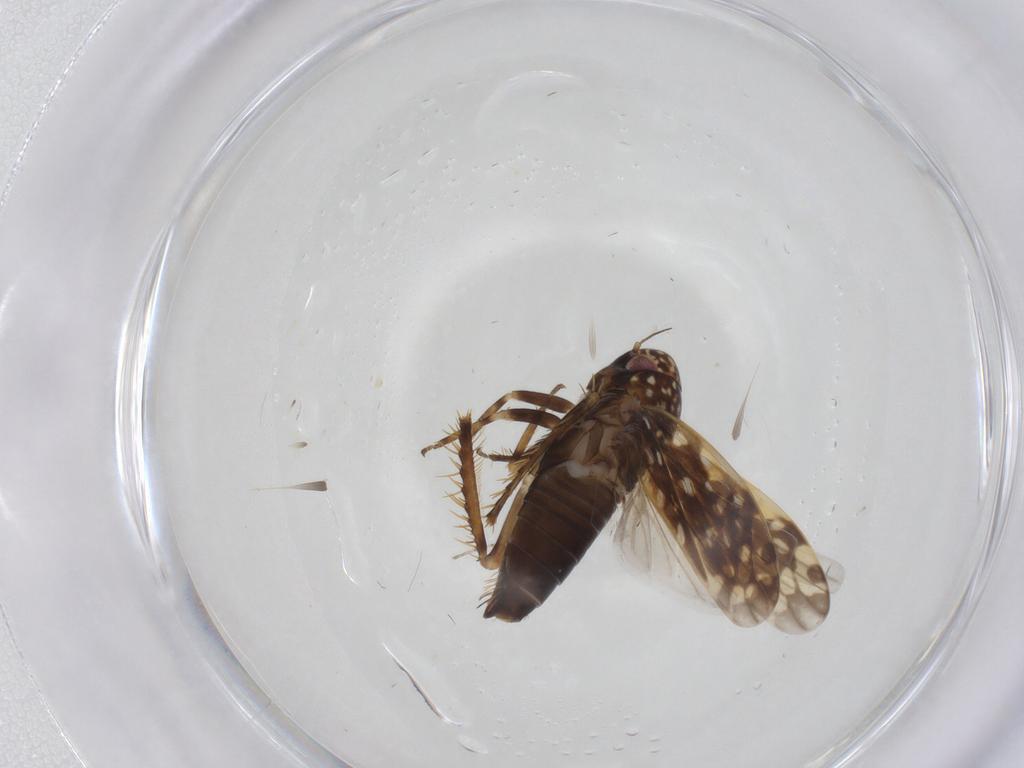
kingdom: Animalia
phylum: Arthropoda
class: Insecta
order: Hemiptera
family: Cicadellidae
